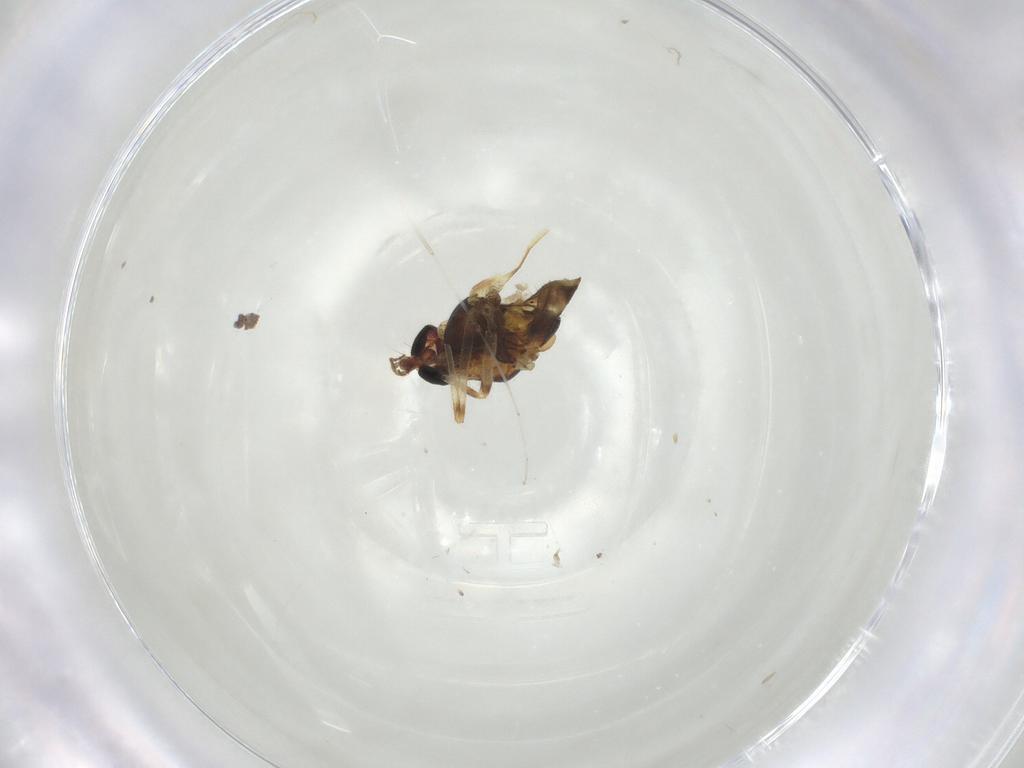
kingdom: Animalia
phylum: Arthropoda
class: Insecta
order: Diptera
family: Chironomidae
